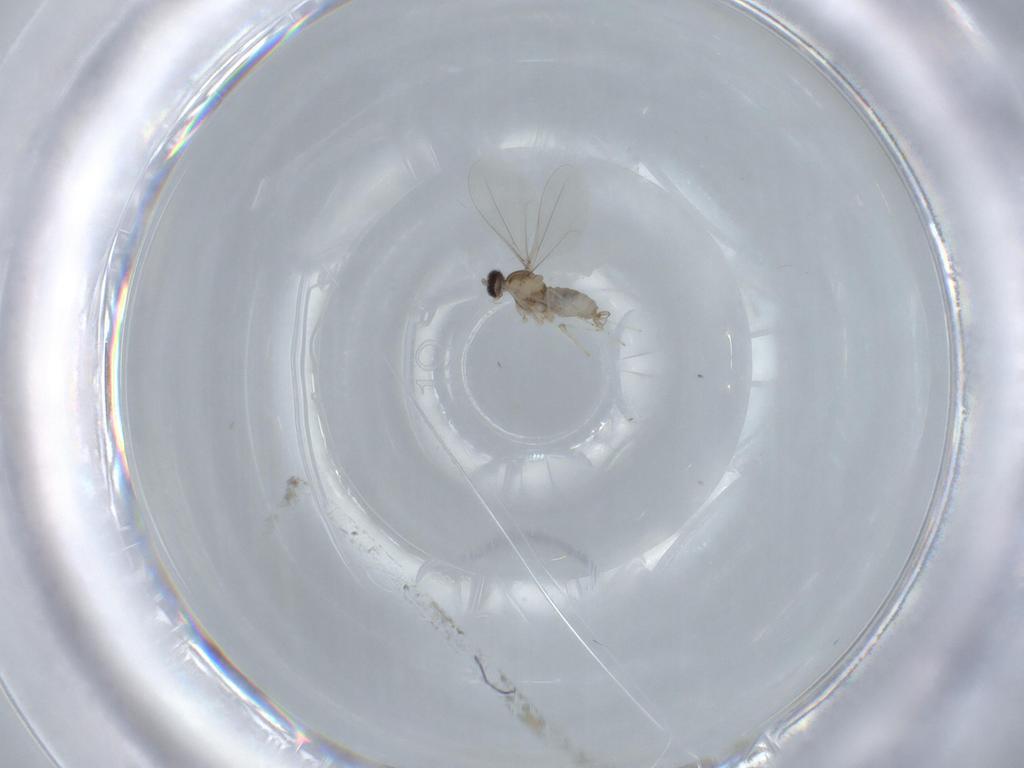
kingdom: Animalia
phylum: Arthropoda
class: Insecta
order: Diptera
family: Cecidomyiidae
